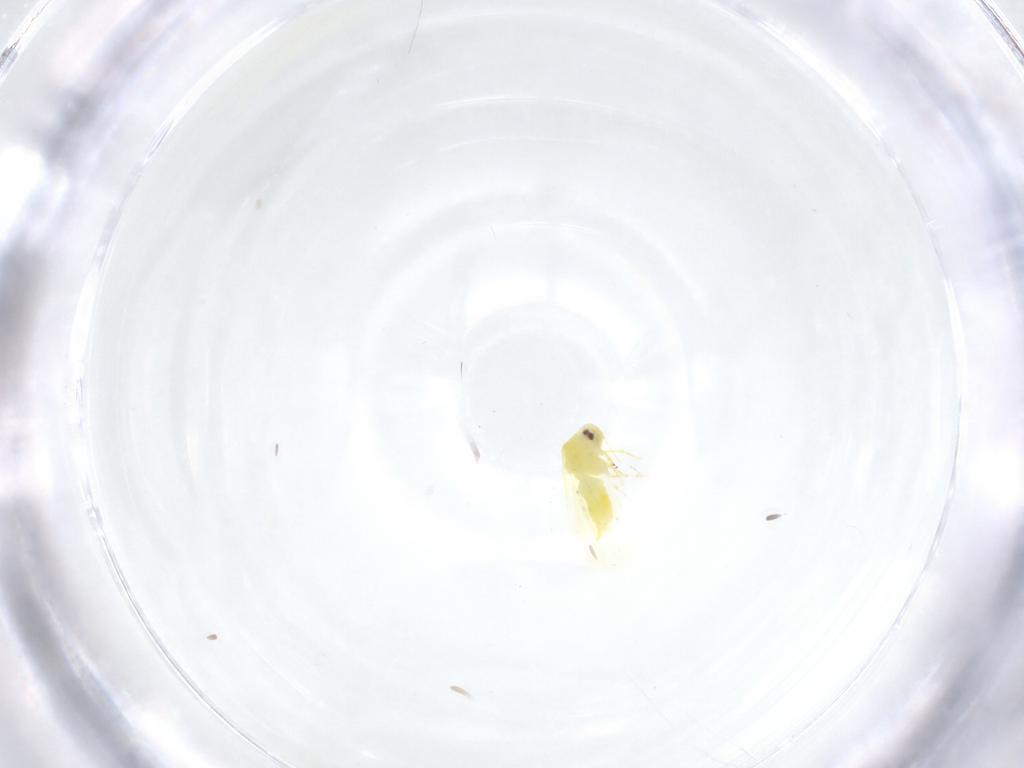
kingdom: Animalia
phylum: Arthropoda
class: Insecta
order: Hemiptera
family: Aleyrodidae
